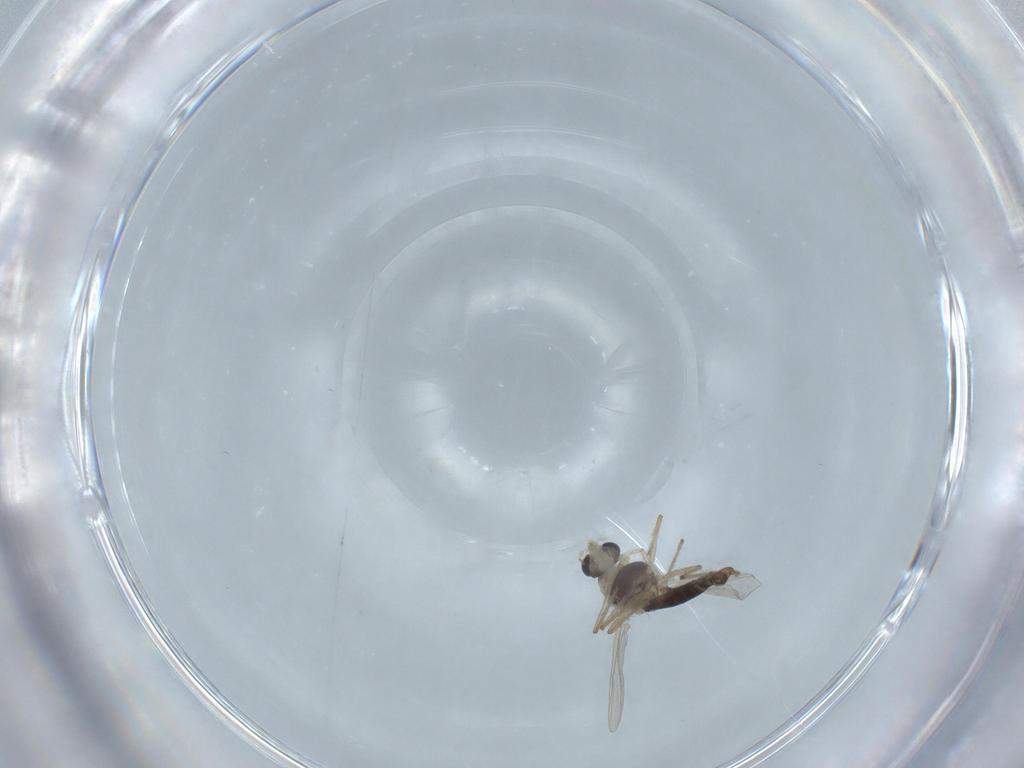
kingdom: Animalia
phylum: Arthropoda
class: Insecta
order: Diptera
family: Chironomidae
